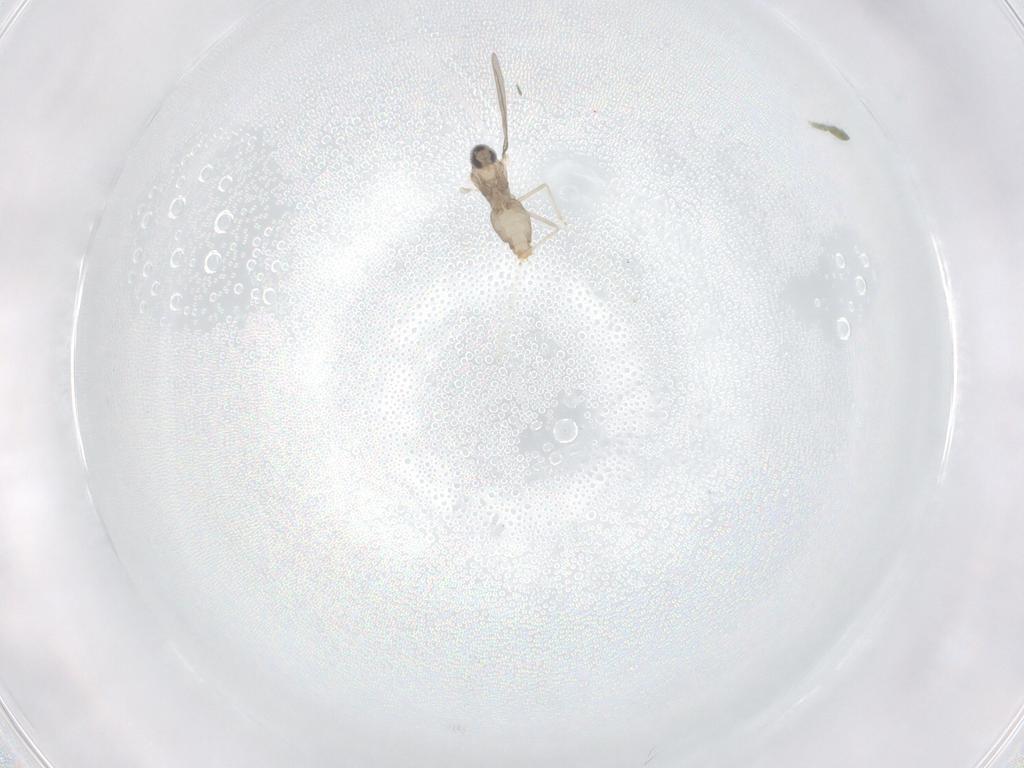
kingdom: Animalia
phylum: Arthropoda
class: Insecta
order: Diptera
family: Cecidomyiidae
